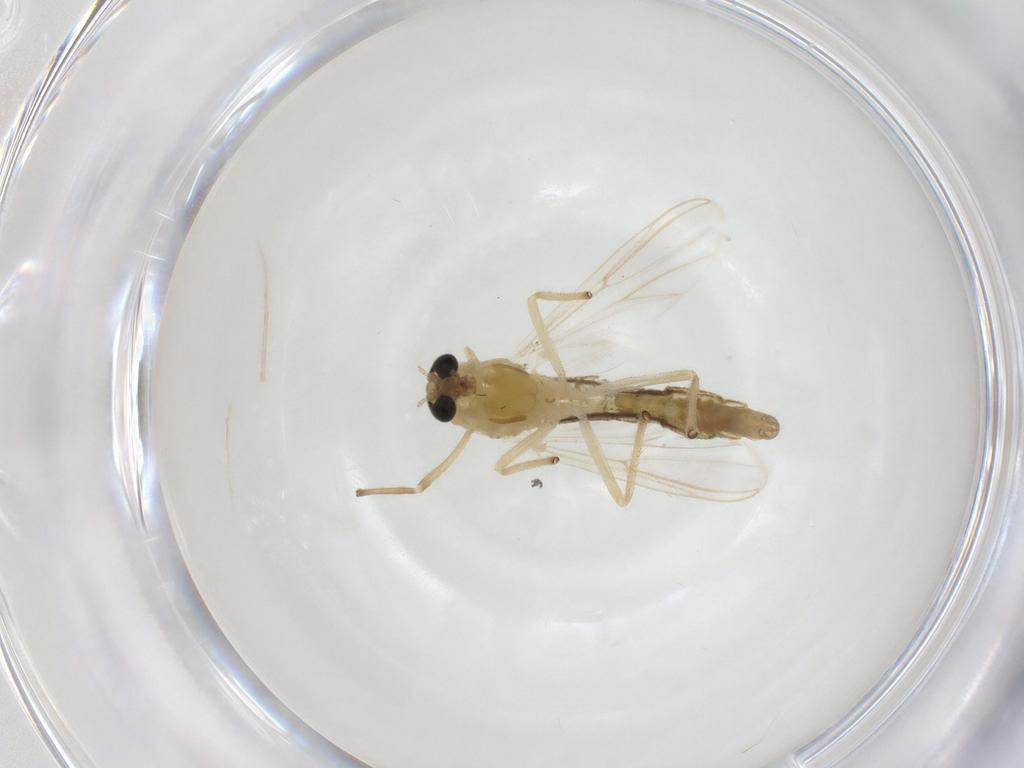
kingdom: Animalia
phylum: Arthropoda
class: Insecta
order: Diptera
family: Chironomidae
